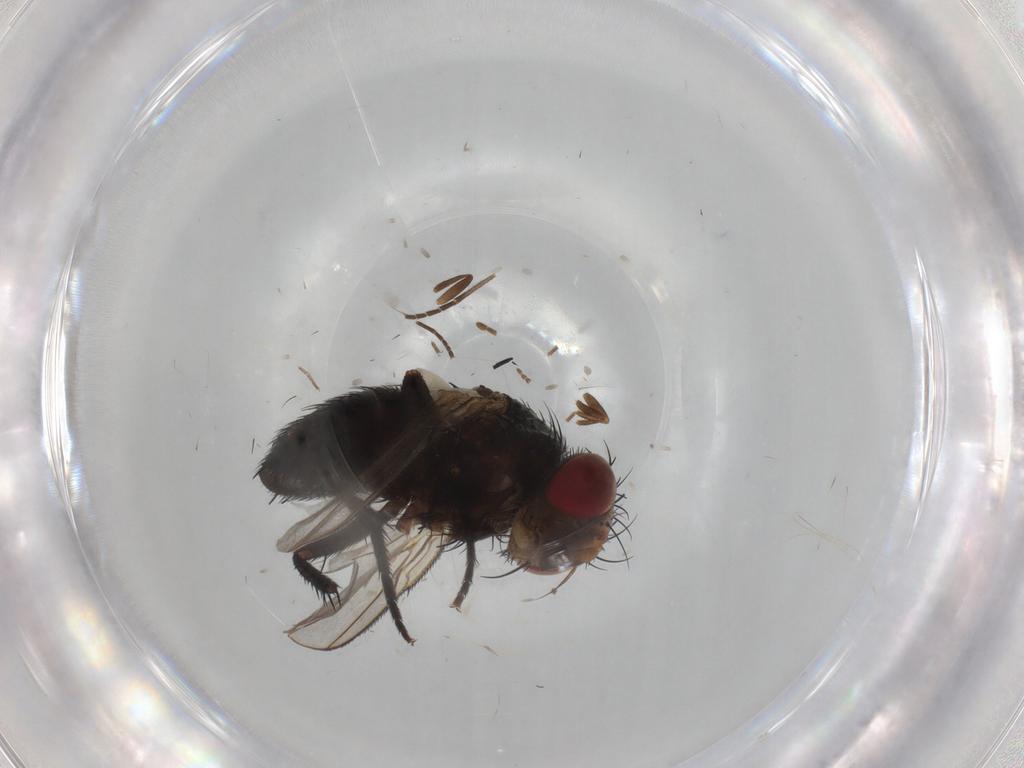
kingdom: Animalia
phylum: Arthropoda
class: Insecta
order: Diptera
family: Tachinidae
